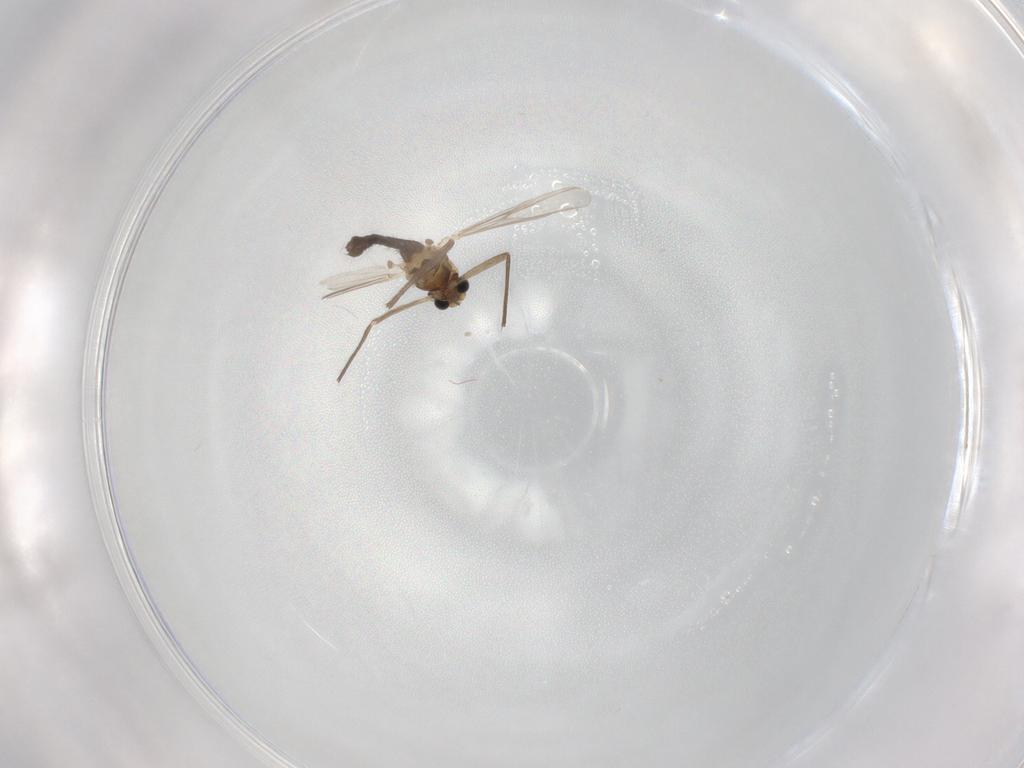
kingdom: Animalia
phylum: Arthropoda
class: Insecta
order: Diptera
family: Chironomidae
